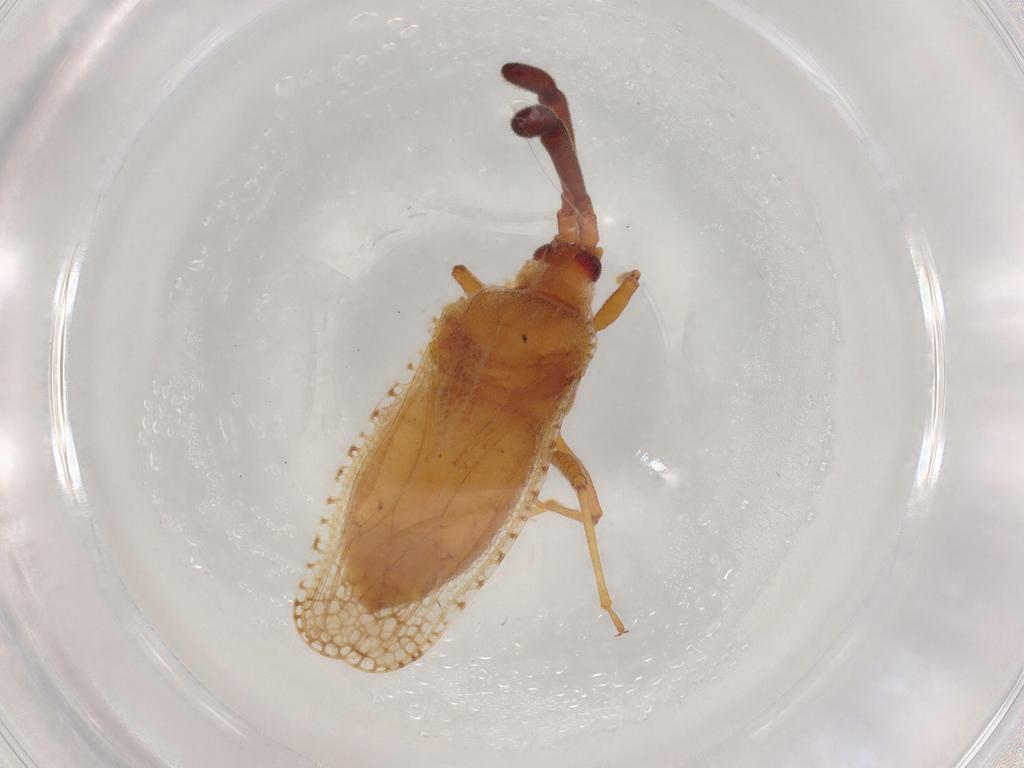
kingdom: Animalia
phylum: Arthropoda
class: Insecta
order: Hemiptera
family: Tingidae
